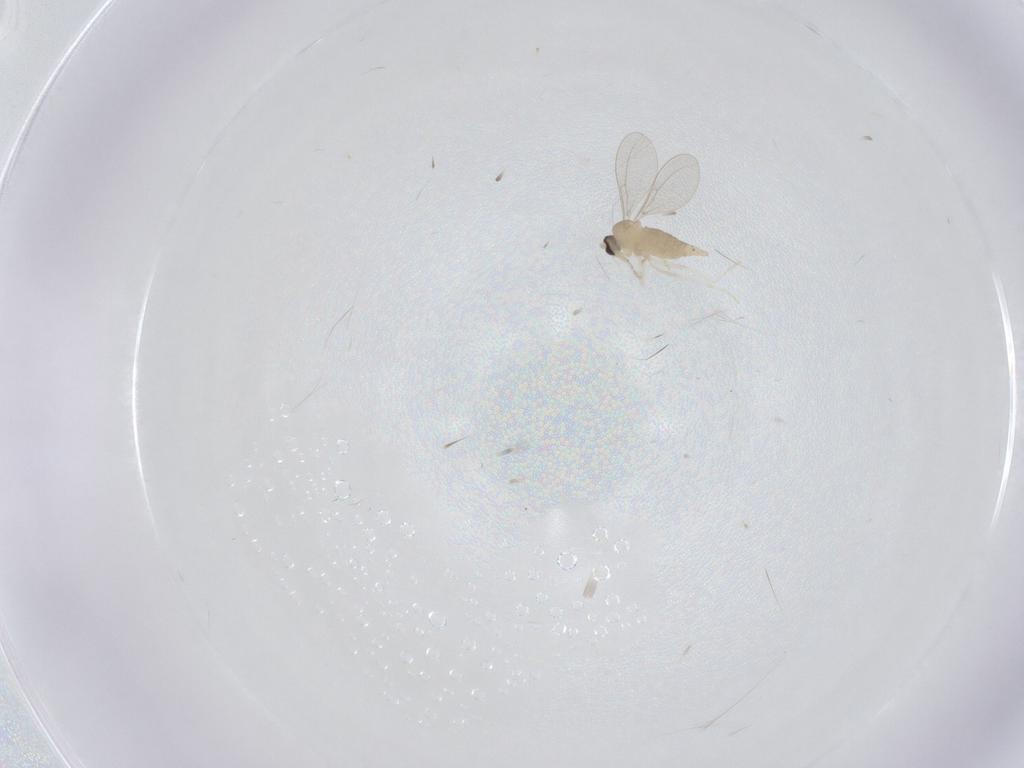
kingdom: Animalia
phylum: Arthropoda
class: Insecta
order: Diptera
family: Cecidomyiidae
